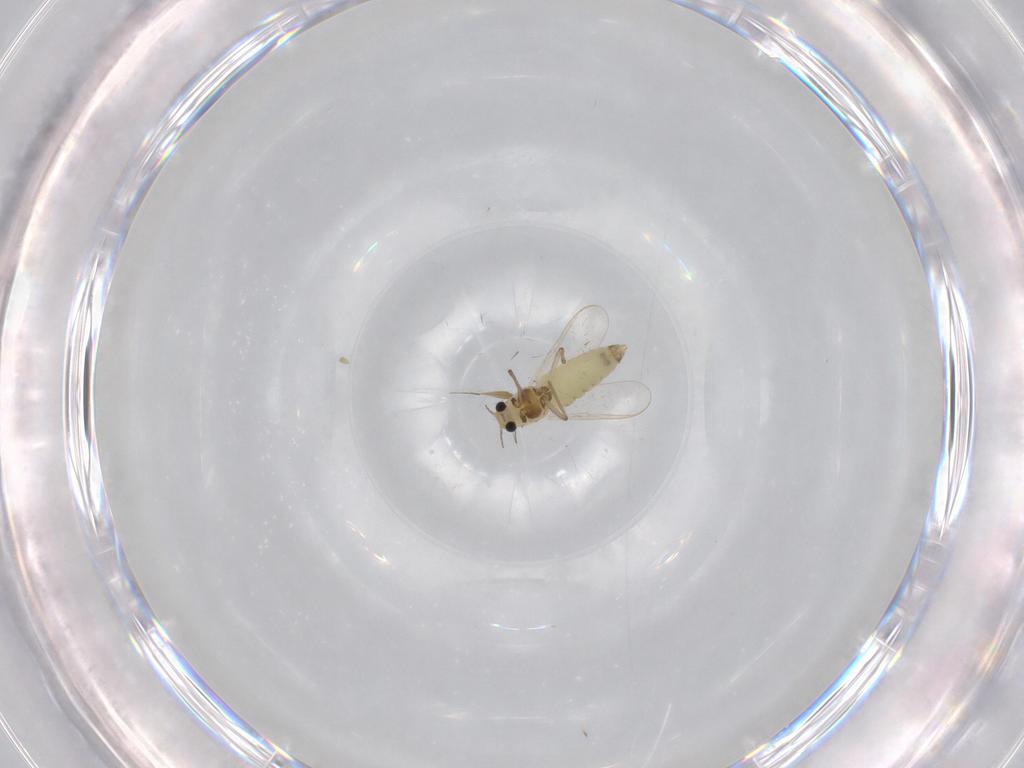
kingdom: Animalia
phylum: Arthropoda
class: Insecta
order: Diptera
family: Chironomidae
